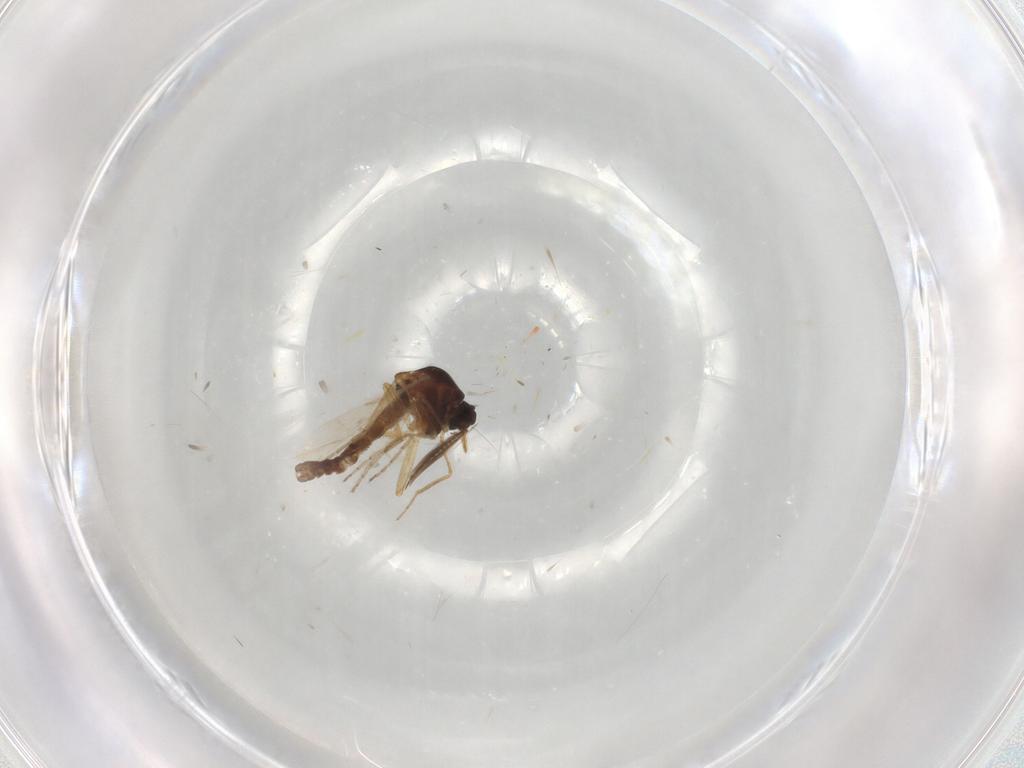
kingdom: Animalia
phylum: Arthropoda
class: Insecta
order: Diptera
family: Ceratopogonidae
